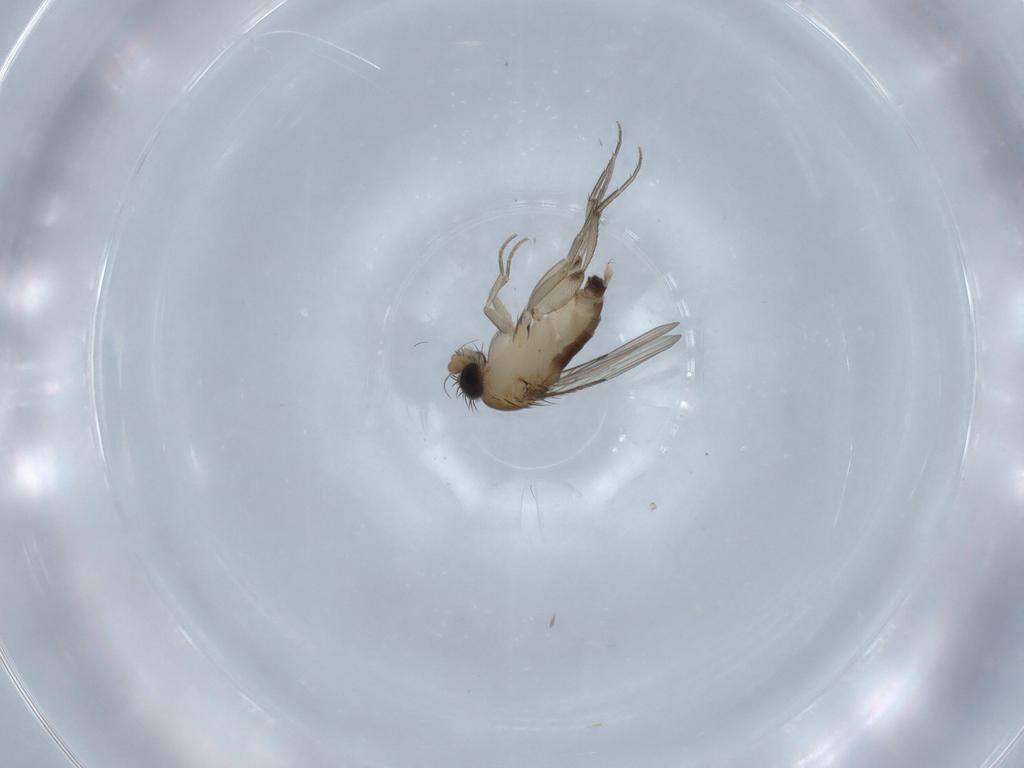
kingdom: Animalia
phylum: Arthropoda
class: Insecta
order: Diptera
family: Phoridae
